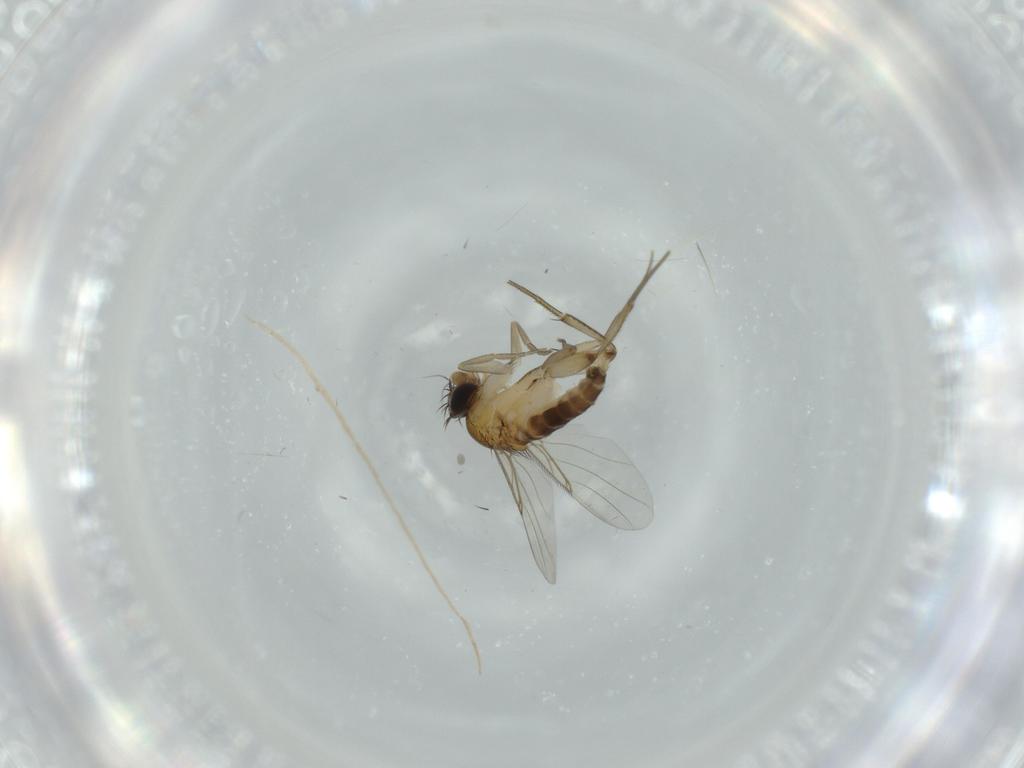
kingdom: Animalia
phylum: Arthropoda
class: Insecta
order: Diptera
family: Phoridae
